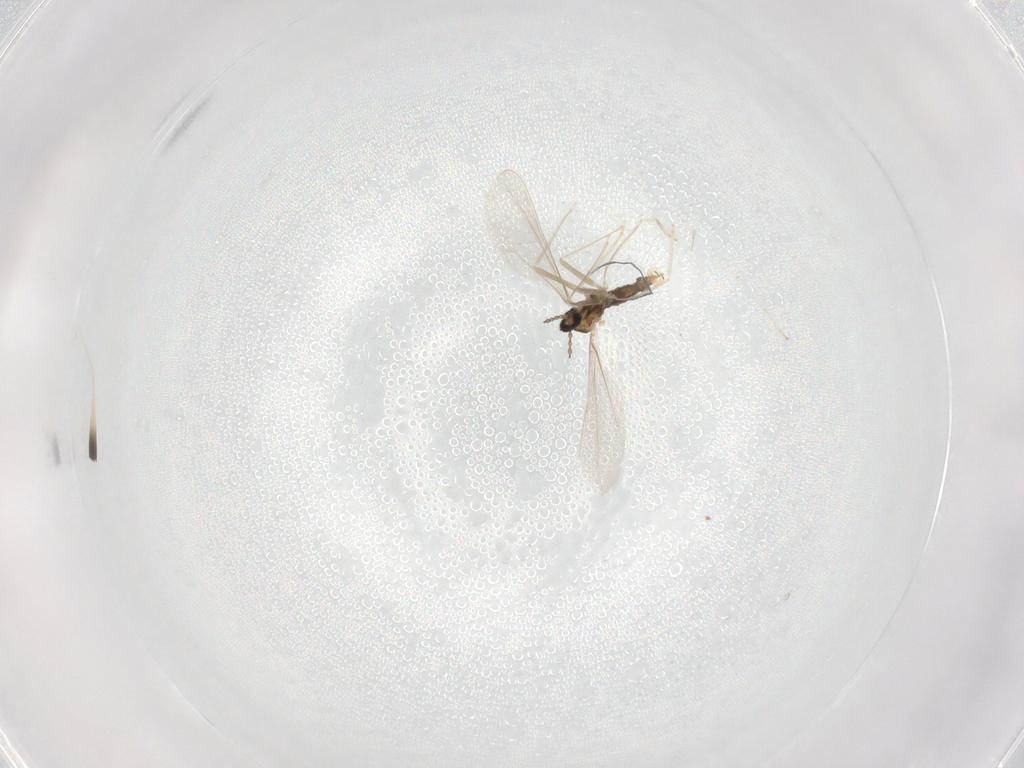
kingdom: Animalia
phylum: Arthropoda
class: Insecta
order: Diptera
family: Cecidomyiidae
